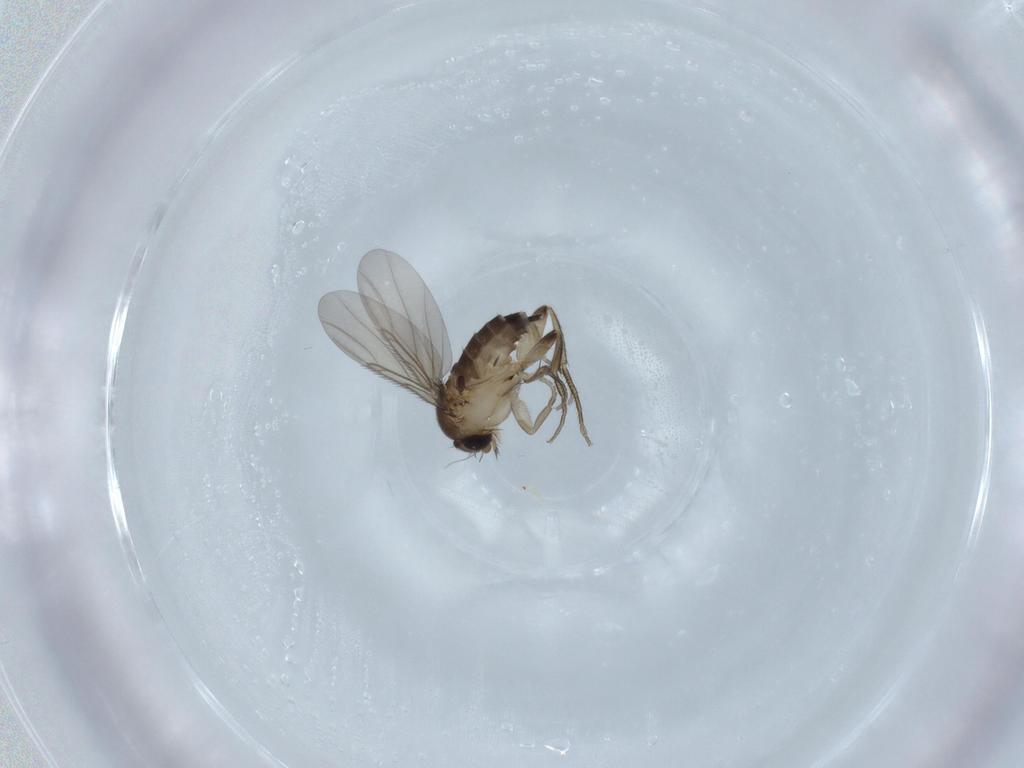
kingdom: Animalia
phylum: Arthropoda
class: Insecta
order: Diptera
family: Phoridae
